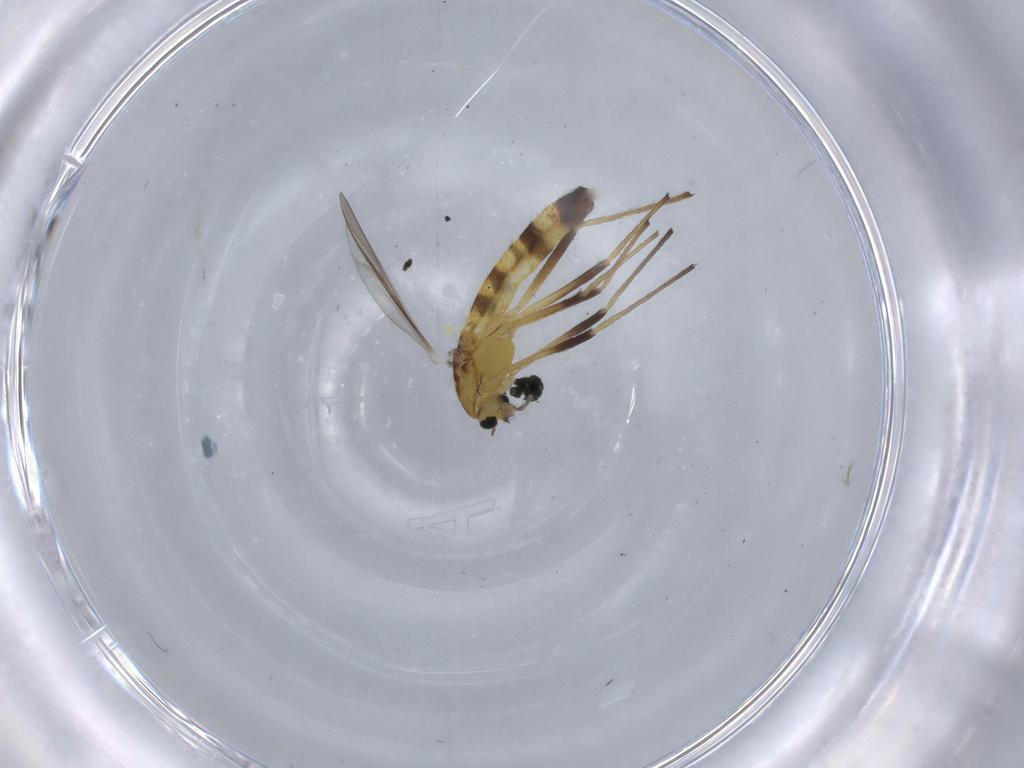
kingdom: Animalia
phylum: Arthropoda
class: Insecta
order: Diptera
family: Chironomidae
